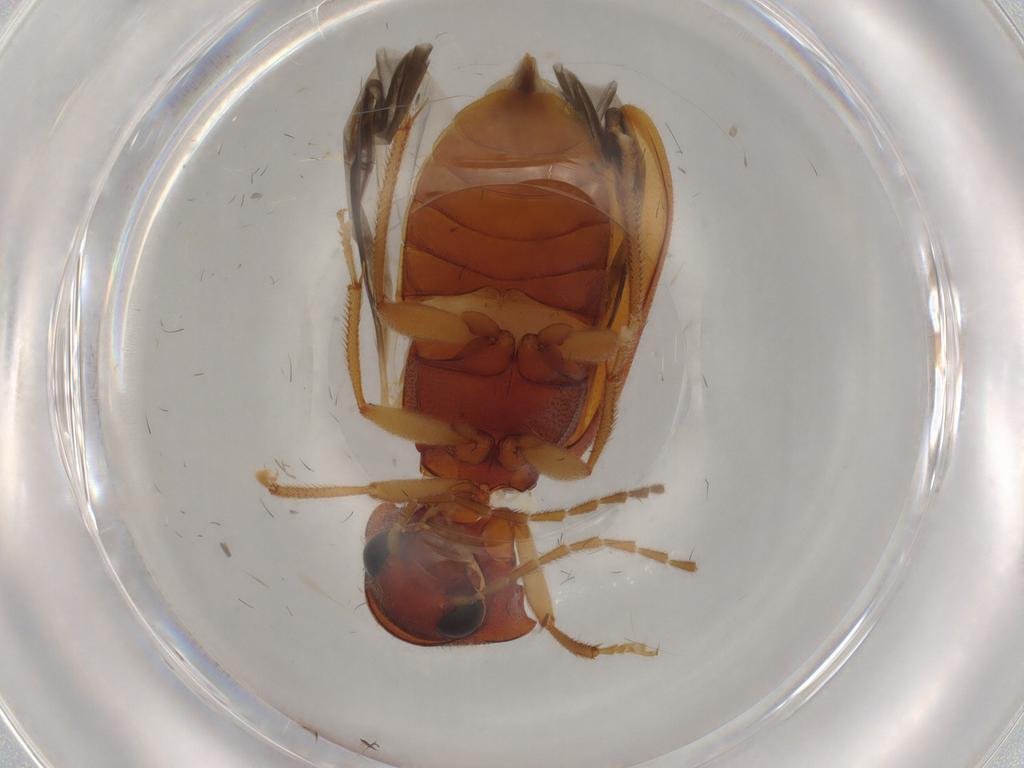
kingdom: Animalia
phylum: Arthropoda
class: Insecta
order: Coleoptera
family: Ptilodactylidae
